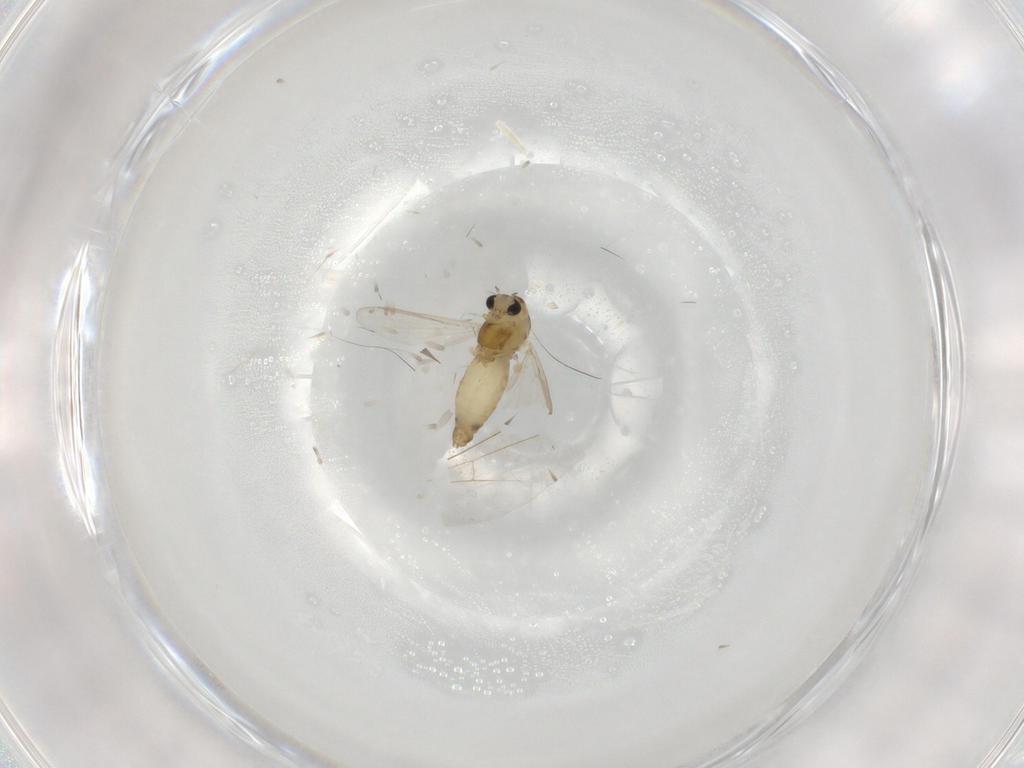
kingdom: Animalia
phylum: Arthropoda
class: Insecta
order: Diptera
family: Chironomidae
